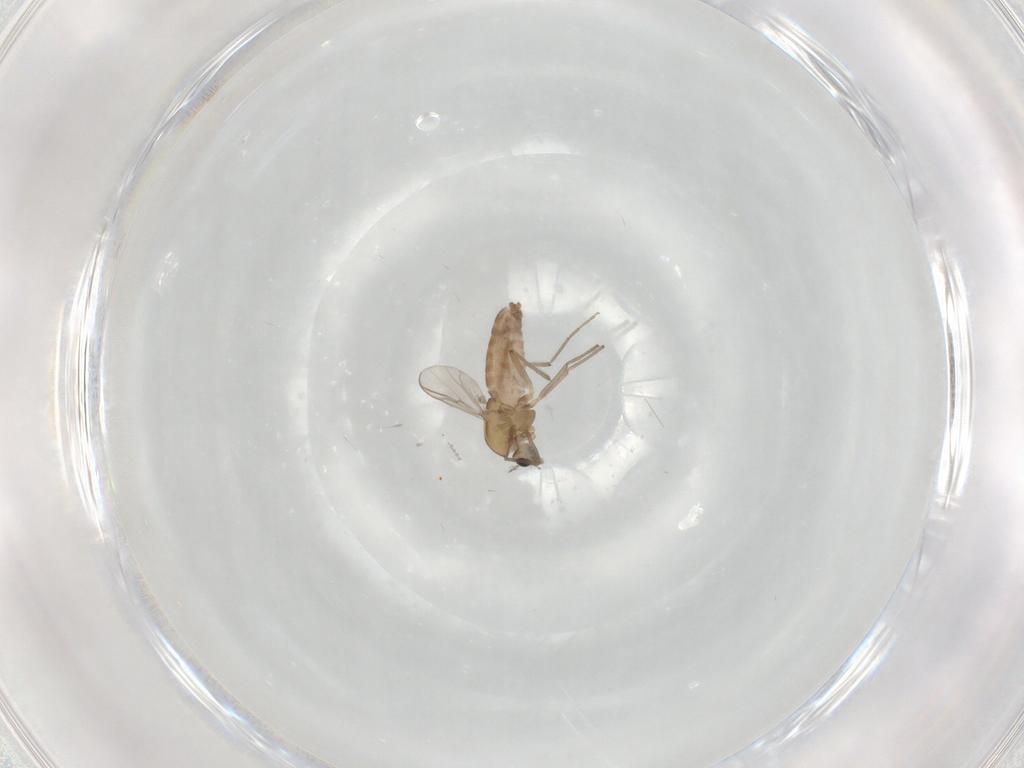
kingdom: Animalia
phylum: Arthropoda
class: Insecta
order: Diptera
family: Chironomidae
